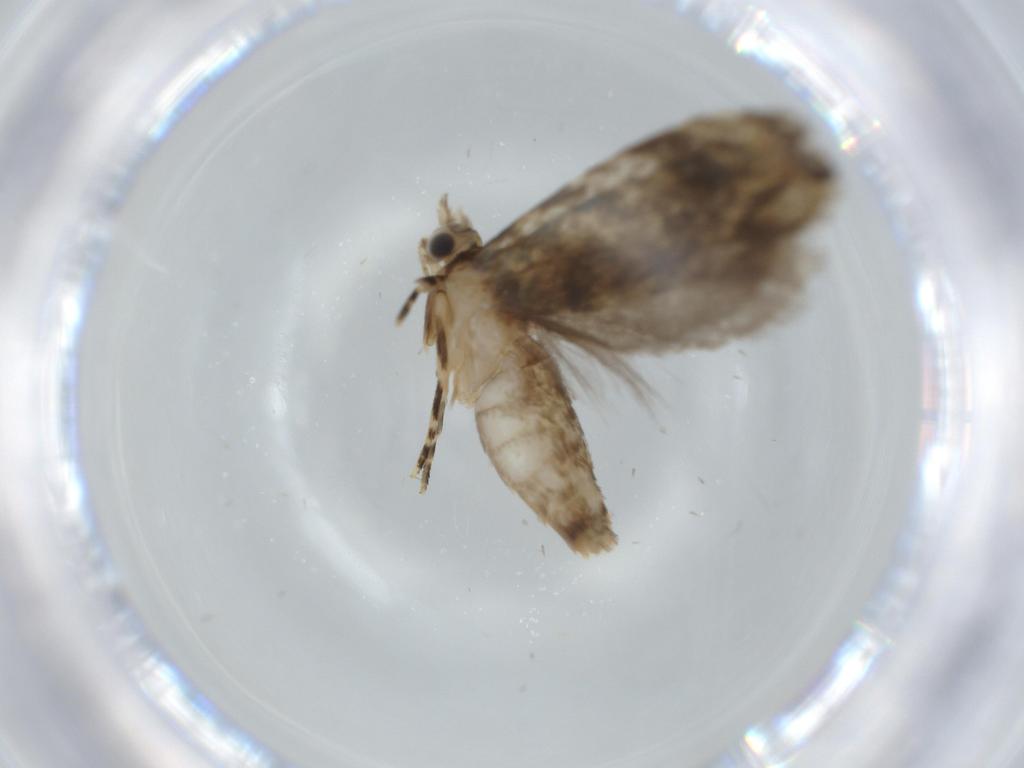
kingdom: Animalia
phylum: Arthropoda
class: Insecta
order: Lepidoptera
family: Tineidae
